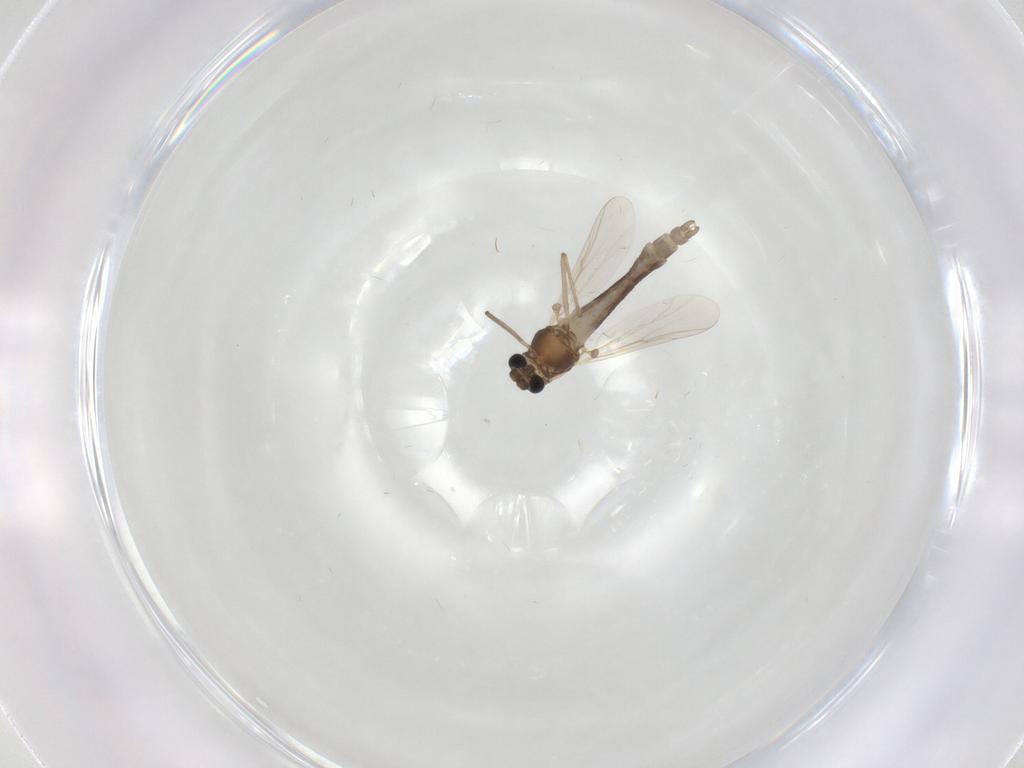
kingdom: Animalia
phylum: Arthropoda
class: Insecta
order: Diptera
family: Chironomidae
